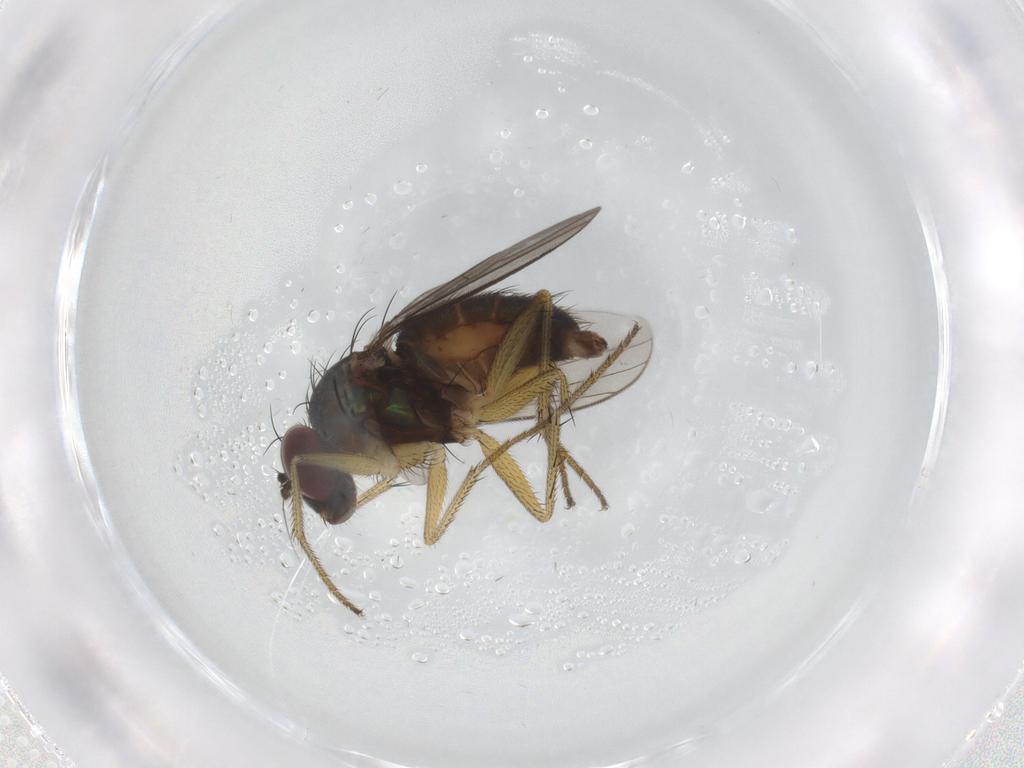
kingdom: Animalia
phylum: Arthropoda
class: Insecta
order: Diptera
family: Dolichopodidae
